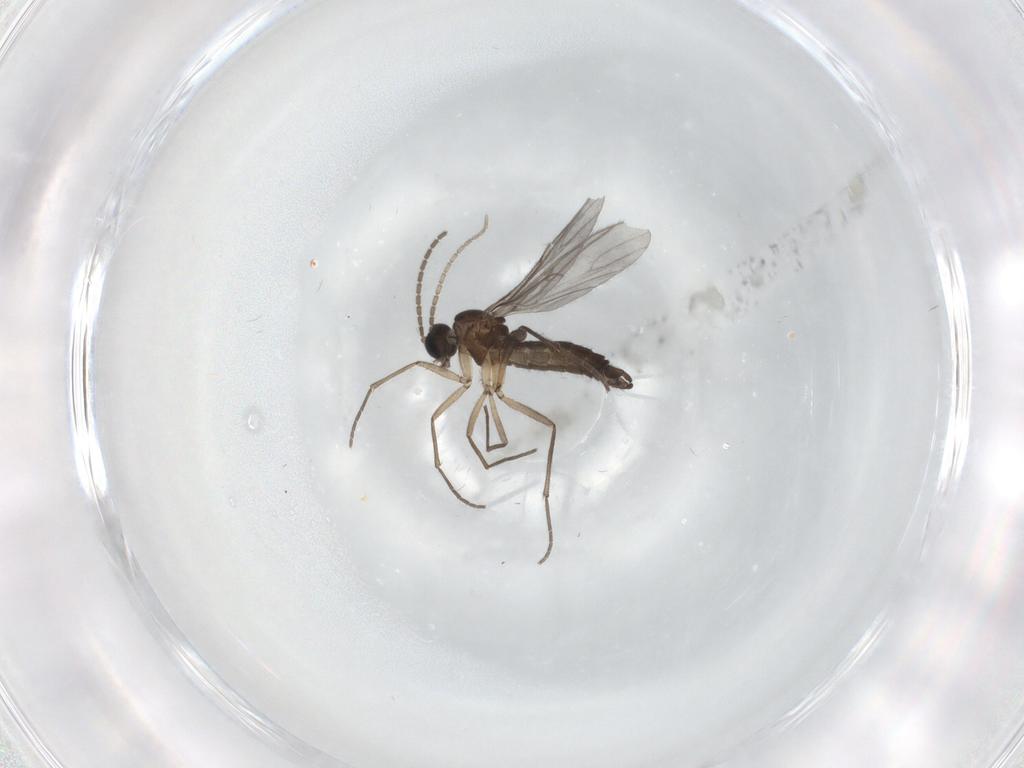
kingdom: Animalia
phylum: Arthropoda
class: Insecta
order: Diptera
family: Sciaridae
